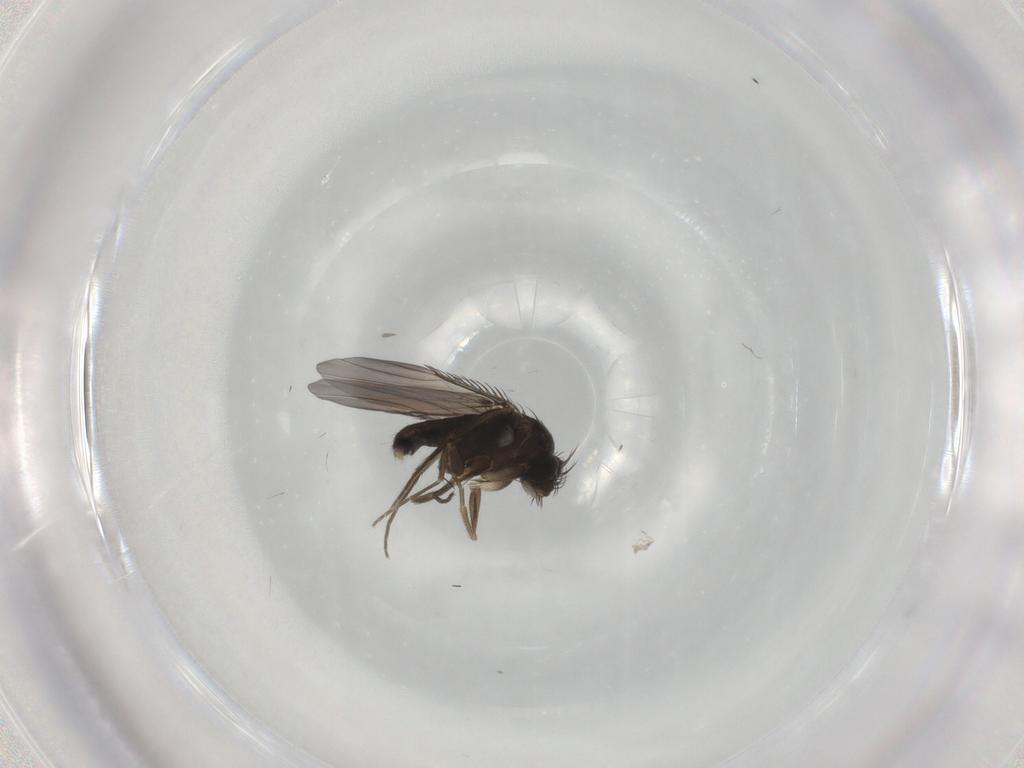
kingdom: Animalia
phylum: Arthropoda
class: Insecta
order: Diptera
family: Phoridae
